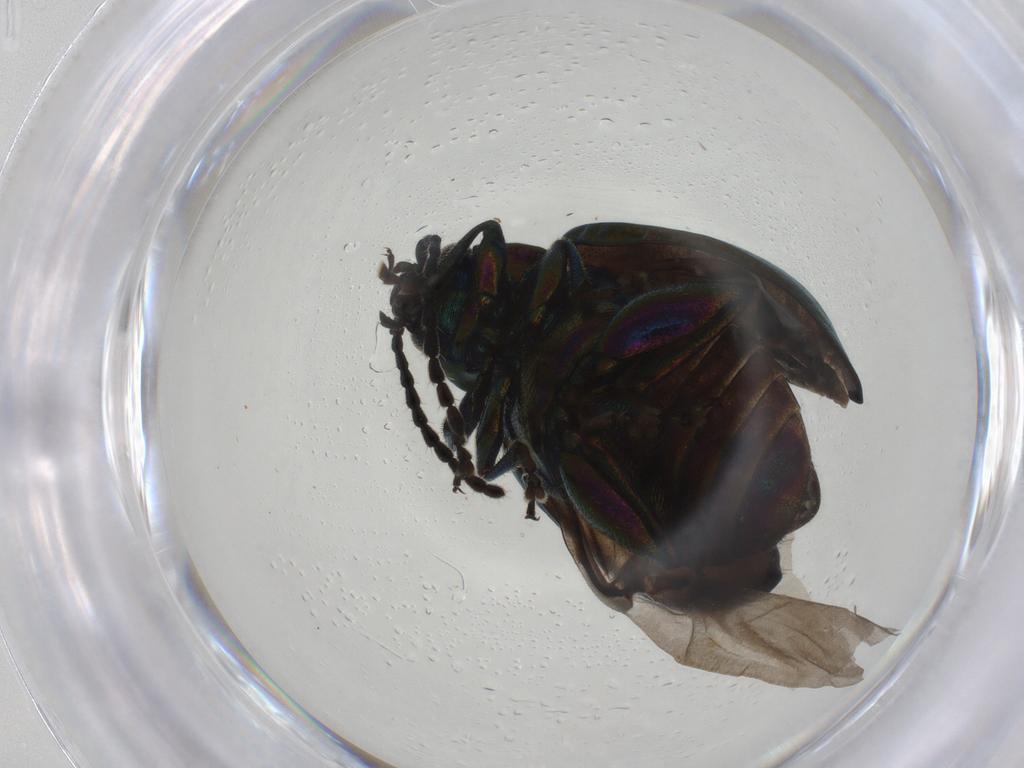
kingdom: Animalia
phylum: Arthropoda
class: Insecta
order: Coleoptera
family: Chrysomelidae
